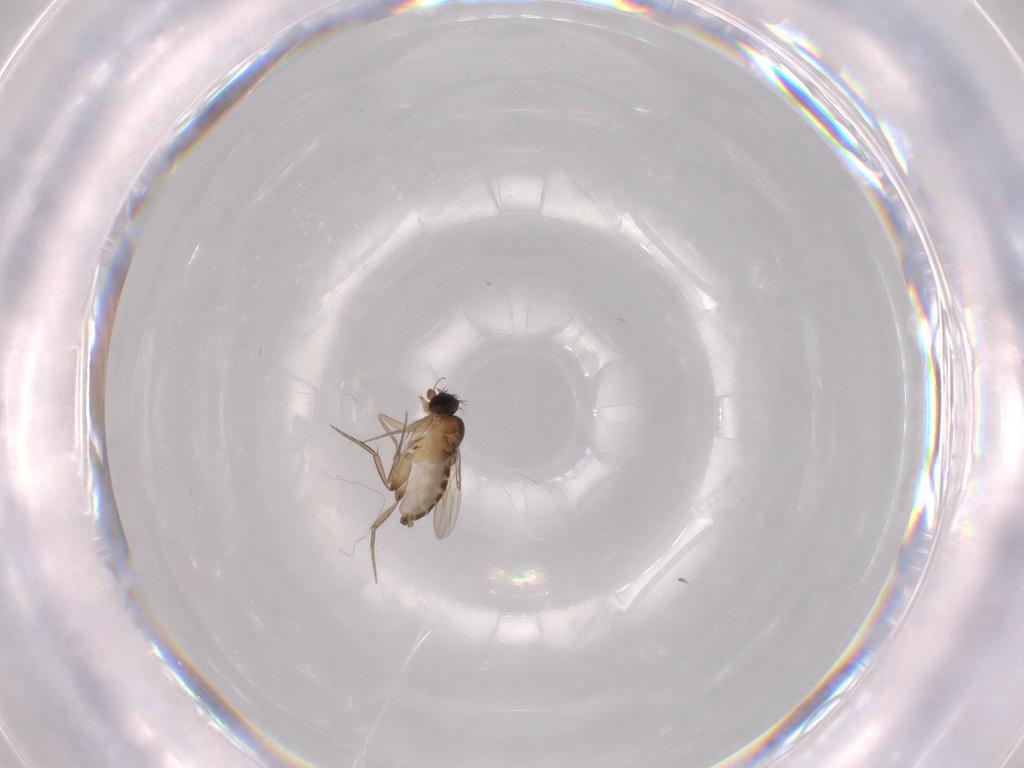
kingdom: Animalia
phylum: Arthropoda
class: Insecta
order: Diptera
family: Phoridae
